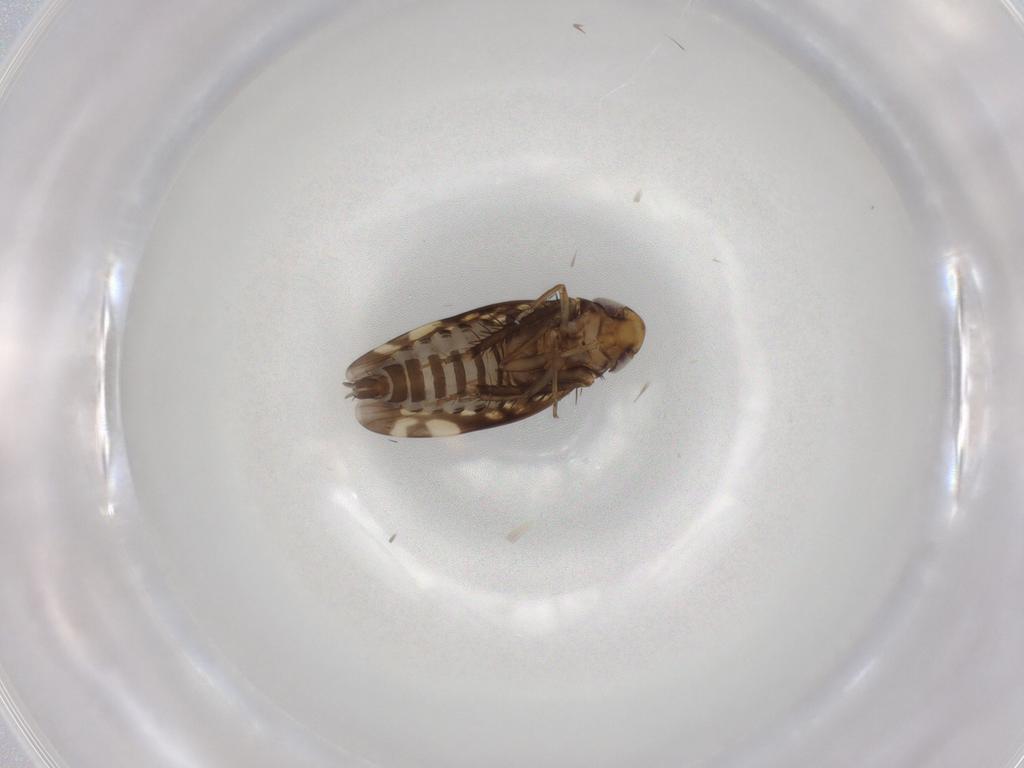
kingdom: Animalia
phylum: Arthropoda
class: Insecta
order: Hemiptera
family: Cicadellidae
